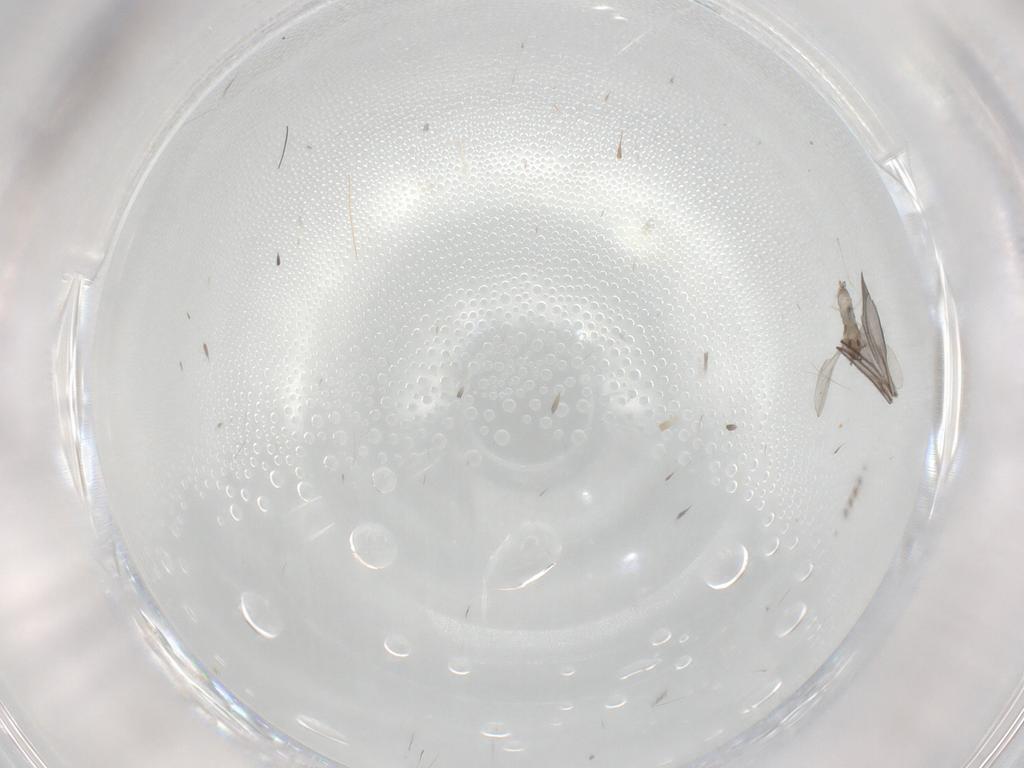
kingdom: Animalia
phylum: Arthropoda
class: Insecta
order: Diptera
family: Cecidomyiidae
